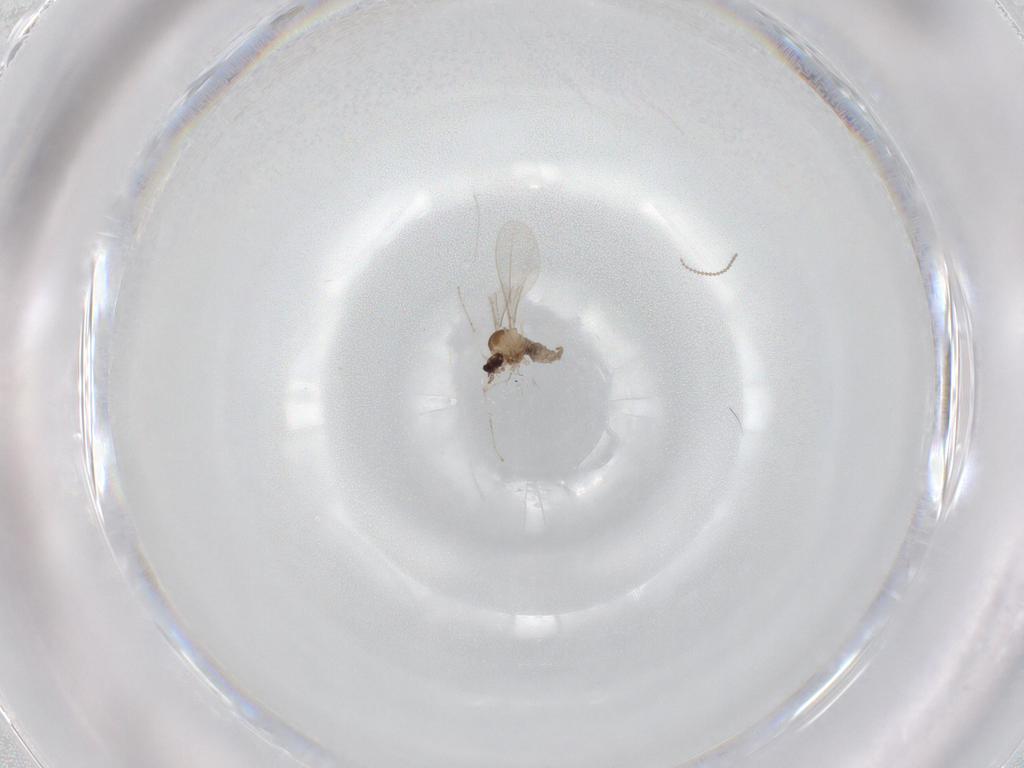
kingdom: Animalia
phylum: Arthropoda
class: Insecta
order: Diptera
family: Cecidomyiidae
